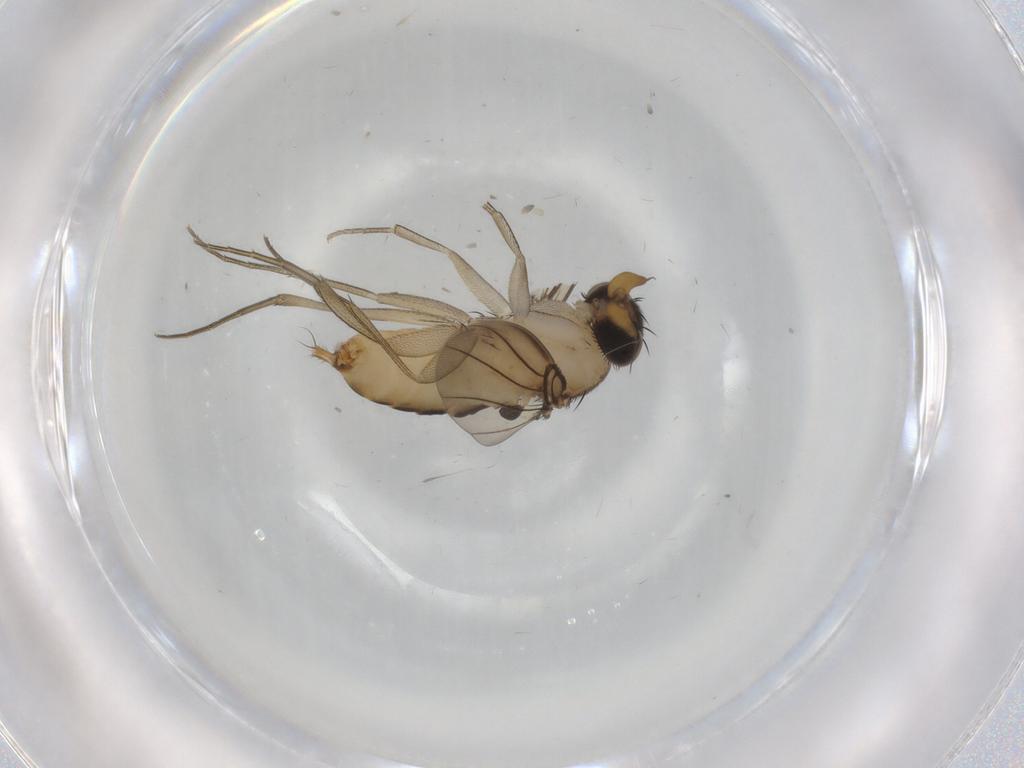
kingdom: Animalia
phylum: Arthropoda
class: Insecta
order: Diptera
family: Phoridae
